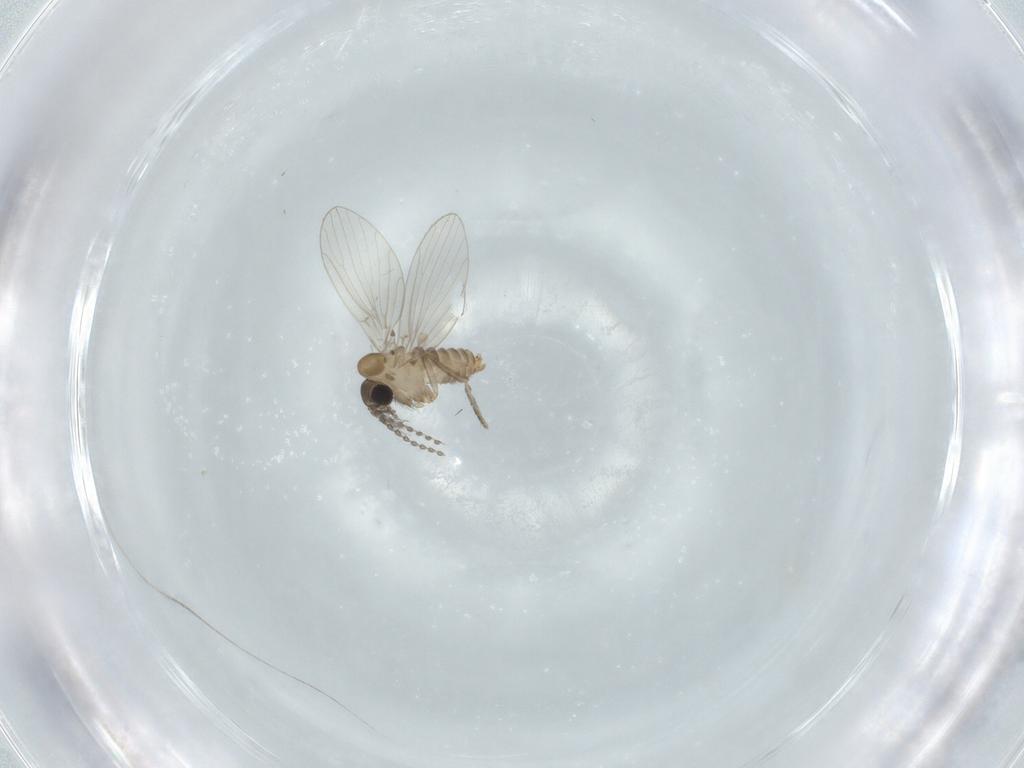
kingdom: Animalia
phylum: Arthropoda
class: Insecta
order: Diptera
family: Psychodidae
